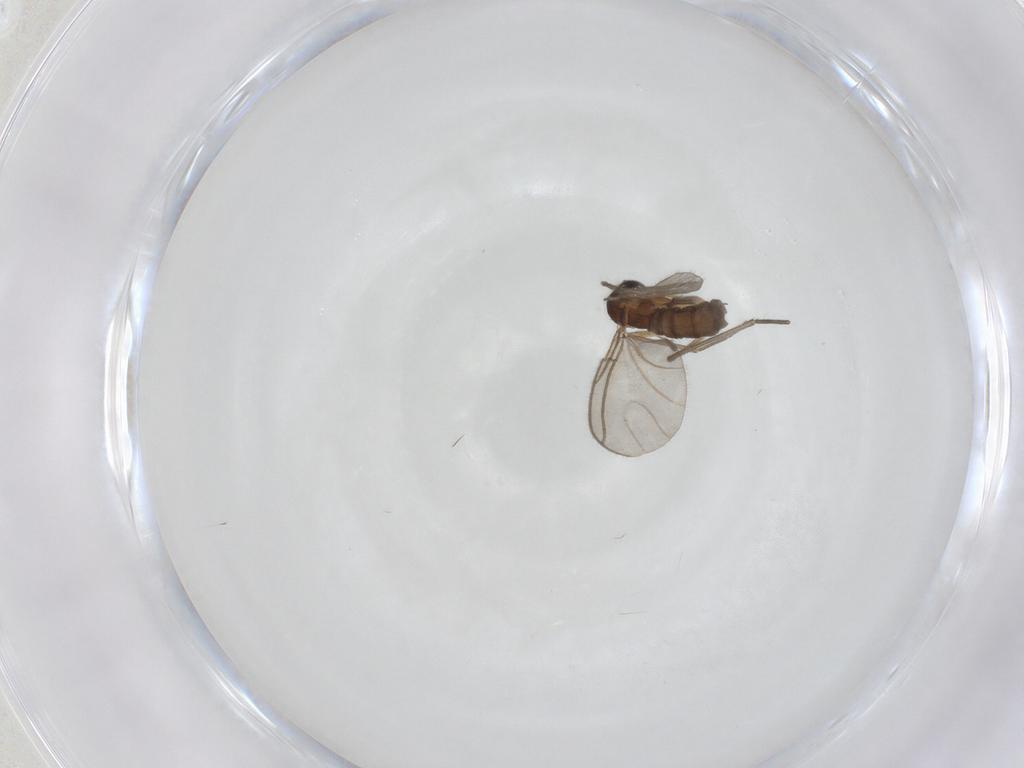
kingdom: Animalia
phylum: Arthropoda
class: Insecta
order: Diptera
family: Sciaridae
